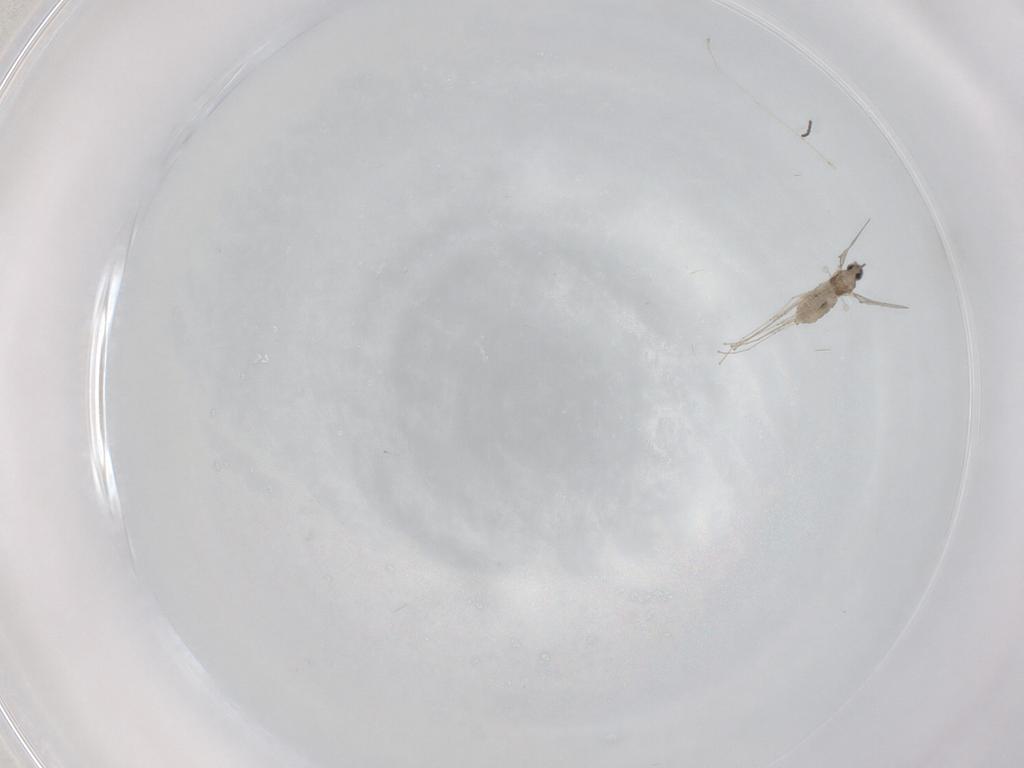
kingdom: Animalia
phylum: Arthropoda
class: Insecta
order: Diptera
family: Cecidomyiidae
